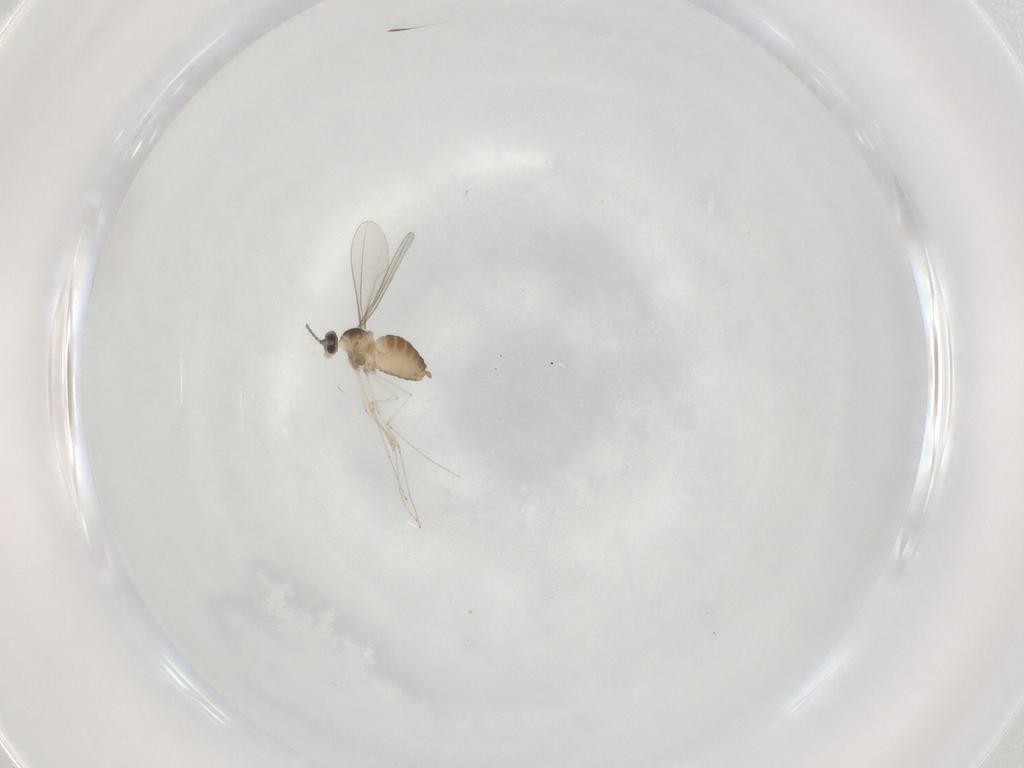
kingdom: Animalia
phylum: Arthropoda
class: Insecta
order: Diptera
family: Cecidomyiidae
